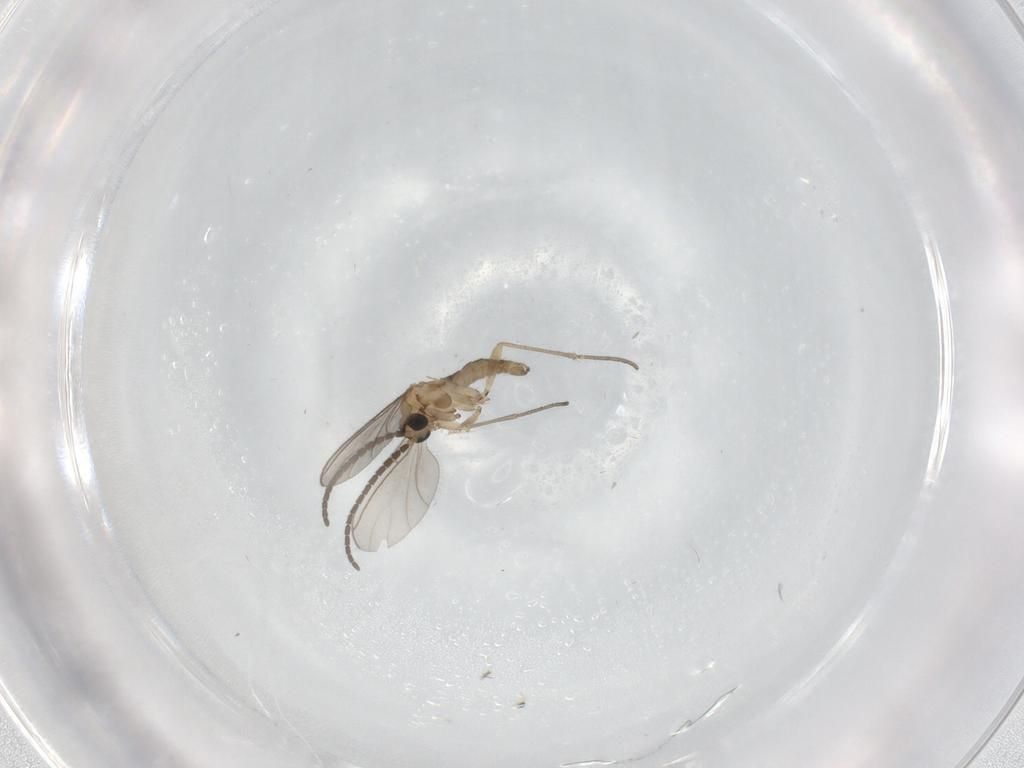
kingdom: Animalia
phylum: Arthropoda
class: Insecta
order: Diptera
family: Sciaridae
